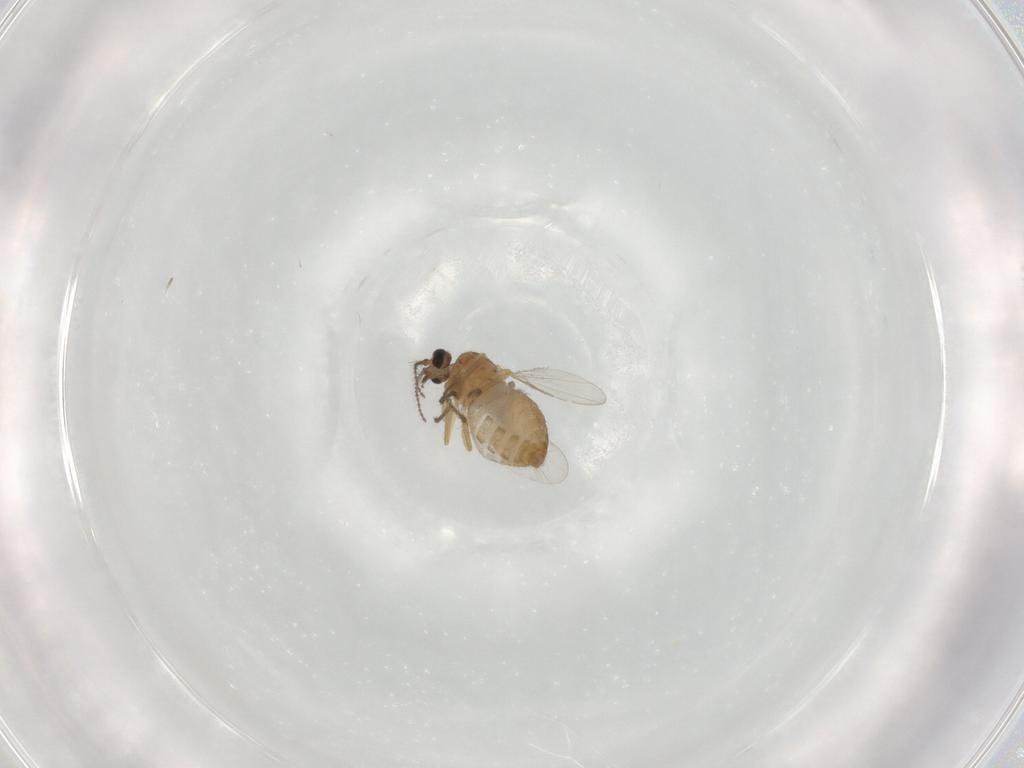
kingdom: Animalia
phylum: Arthropoda
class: Insecta
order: Diptera
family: Ceratopogonidae
